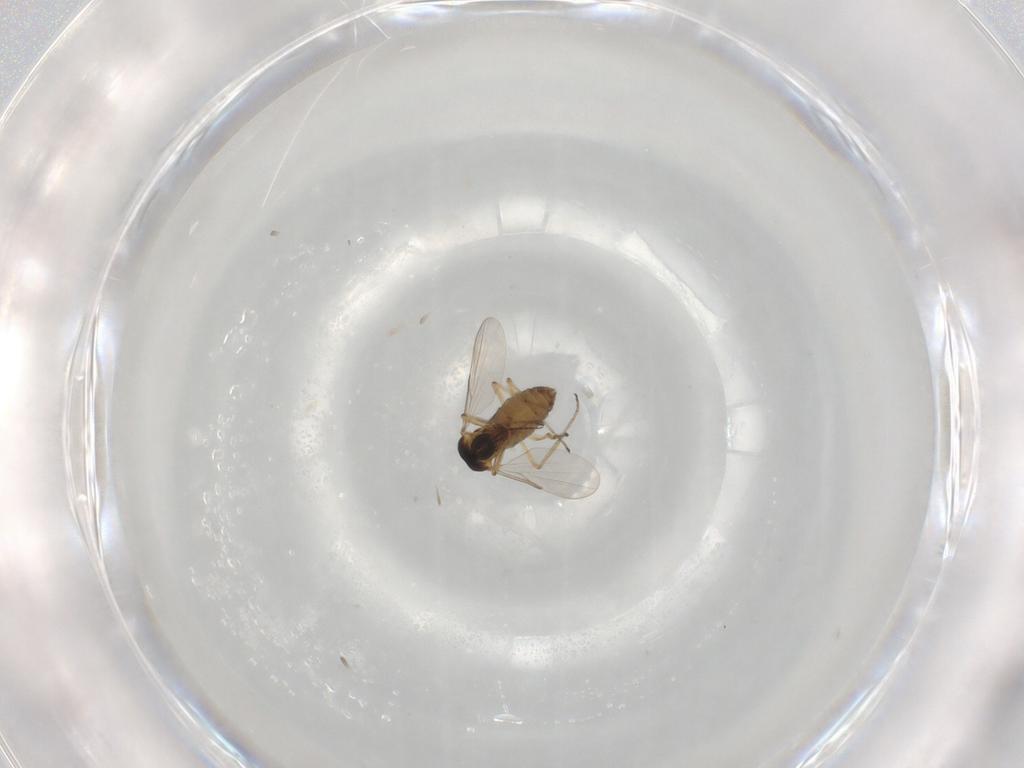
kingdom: Animalia
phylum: Arthropoda
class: Insecta
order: Diptera
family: Ceratopogonidae
